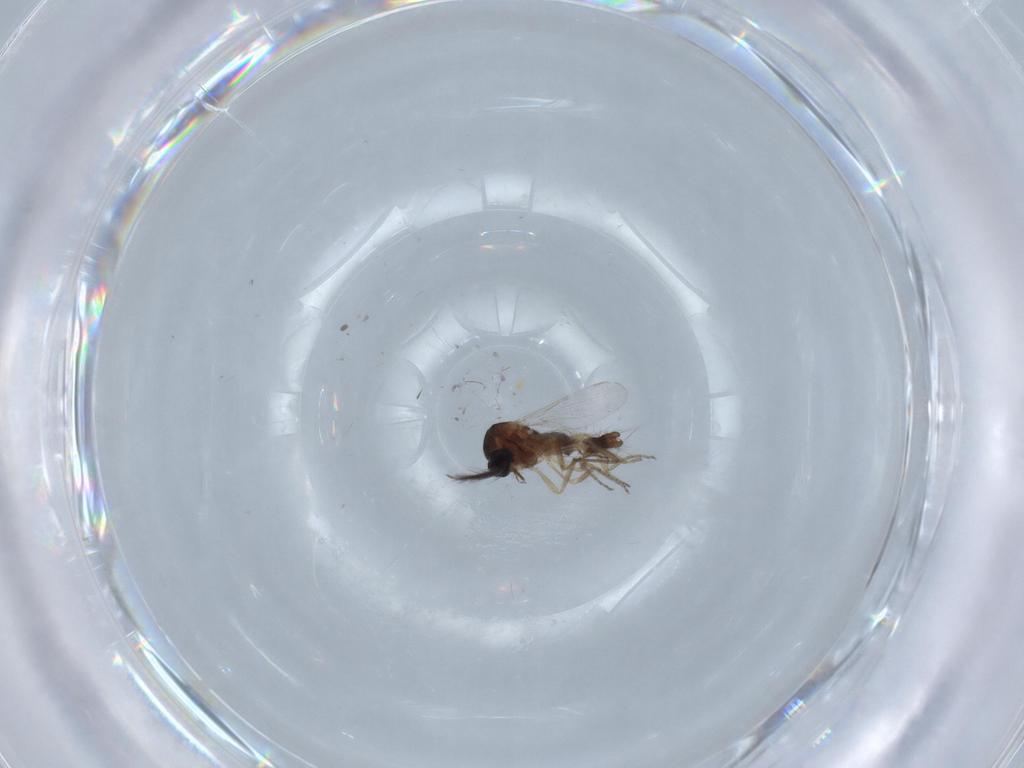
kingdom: Animalia
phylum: Arthropoda
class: Insecta
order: Diptera
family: Ceratopogonidae
